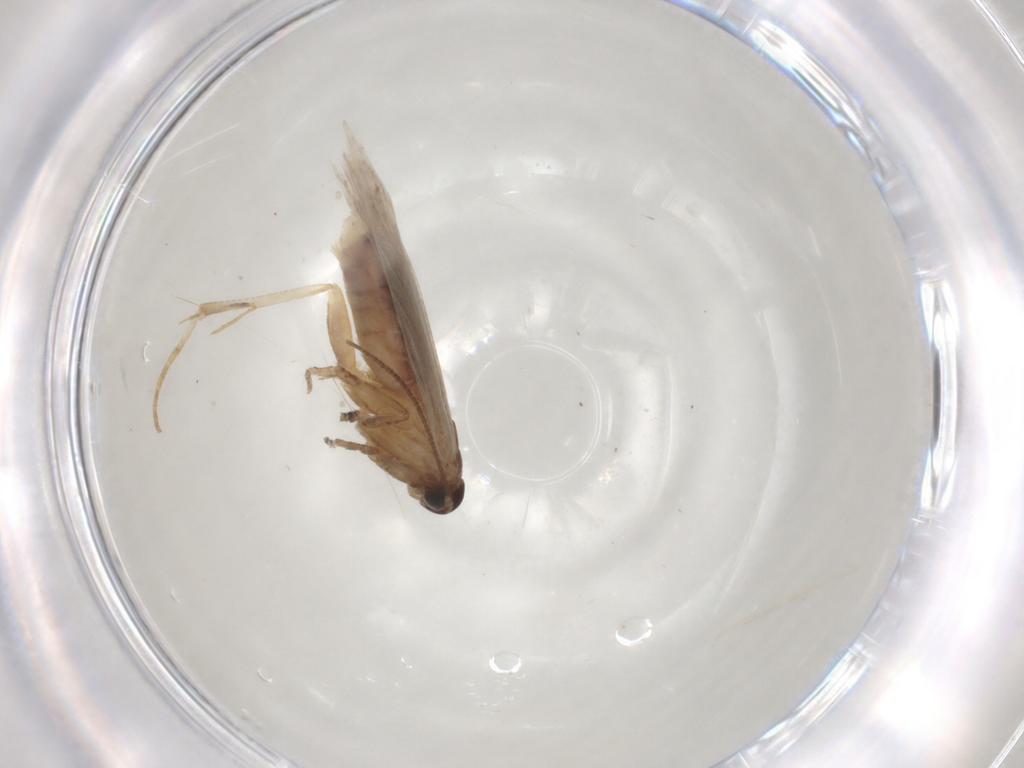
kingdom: Animalia
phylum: Arthropoda
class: Insecta
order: Lepidoptera
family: Gelechiidae
